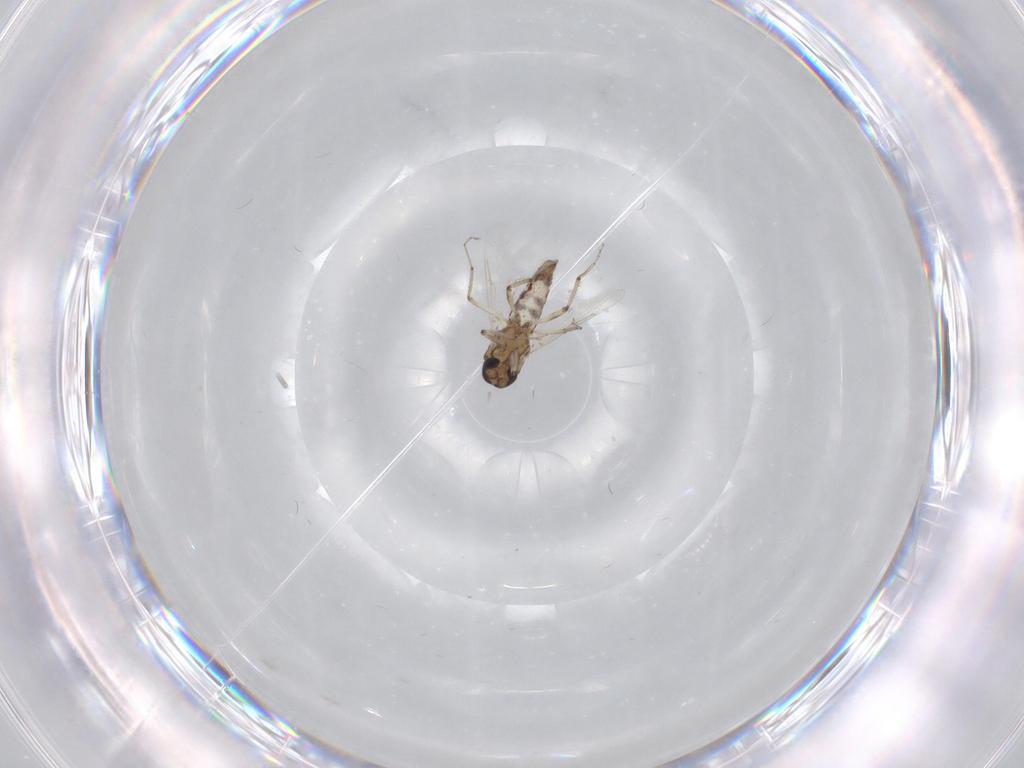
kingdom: Animalia
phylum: Arthropoda
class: Insecta
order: Diptera
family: Ceratopogonidae
